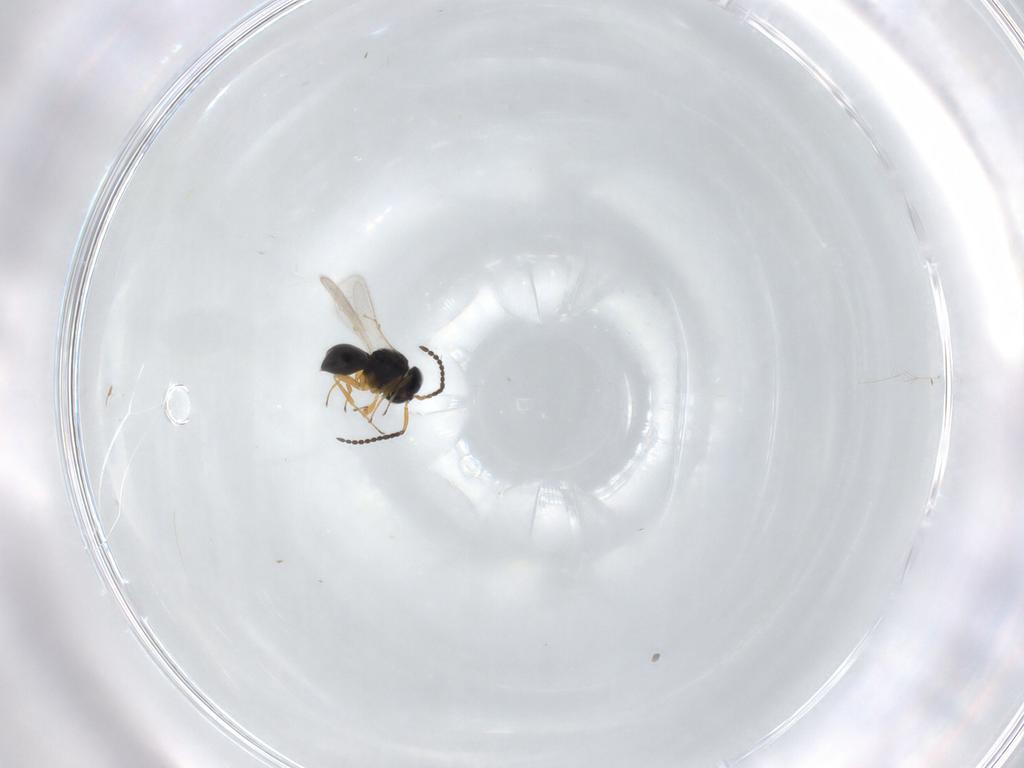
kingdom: Animalia
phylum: Arthropoda
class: Insecta
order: Hymenoptera
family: Scelionidae
